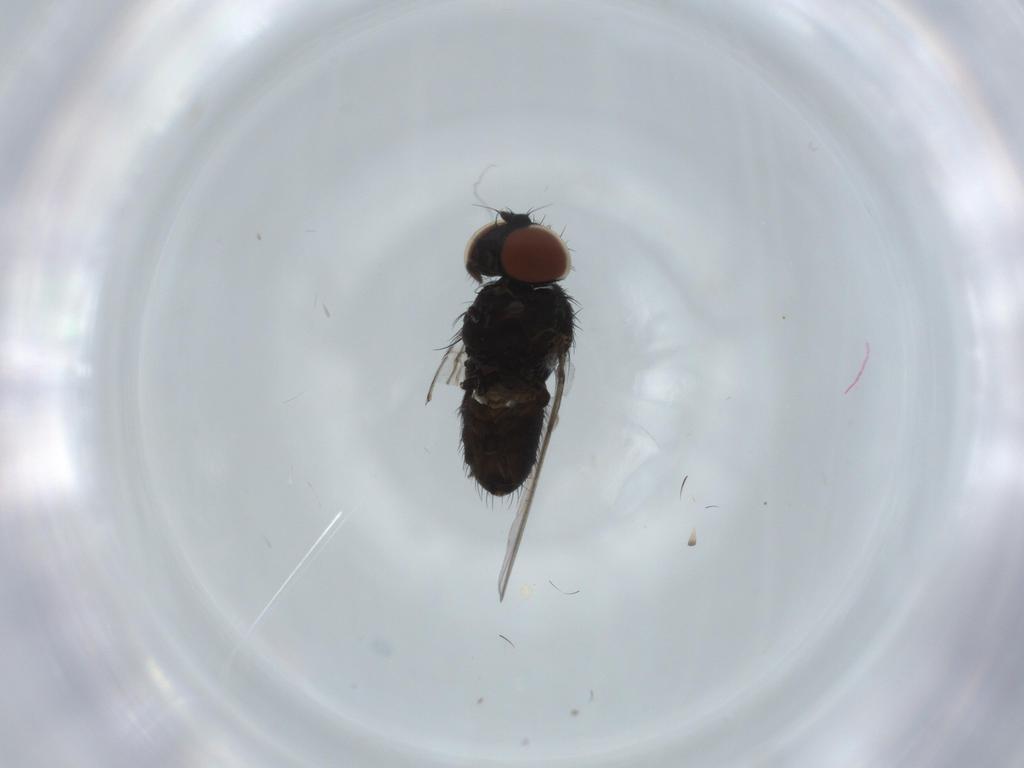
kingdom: Animalia
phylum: Arthropoda
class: Insecta
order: Diptera
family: Milichiidae
